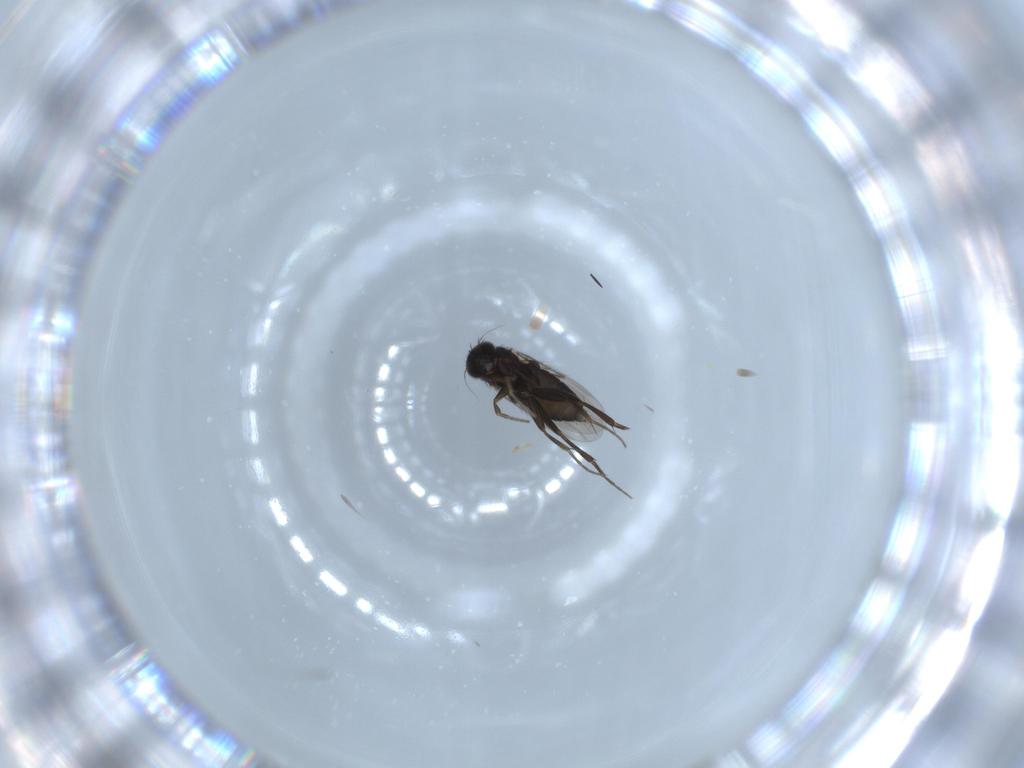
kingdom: Animalia
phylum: Arthropoda
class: Insecta
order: Diptera
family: Phoridae
